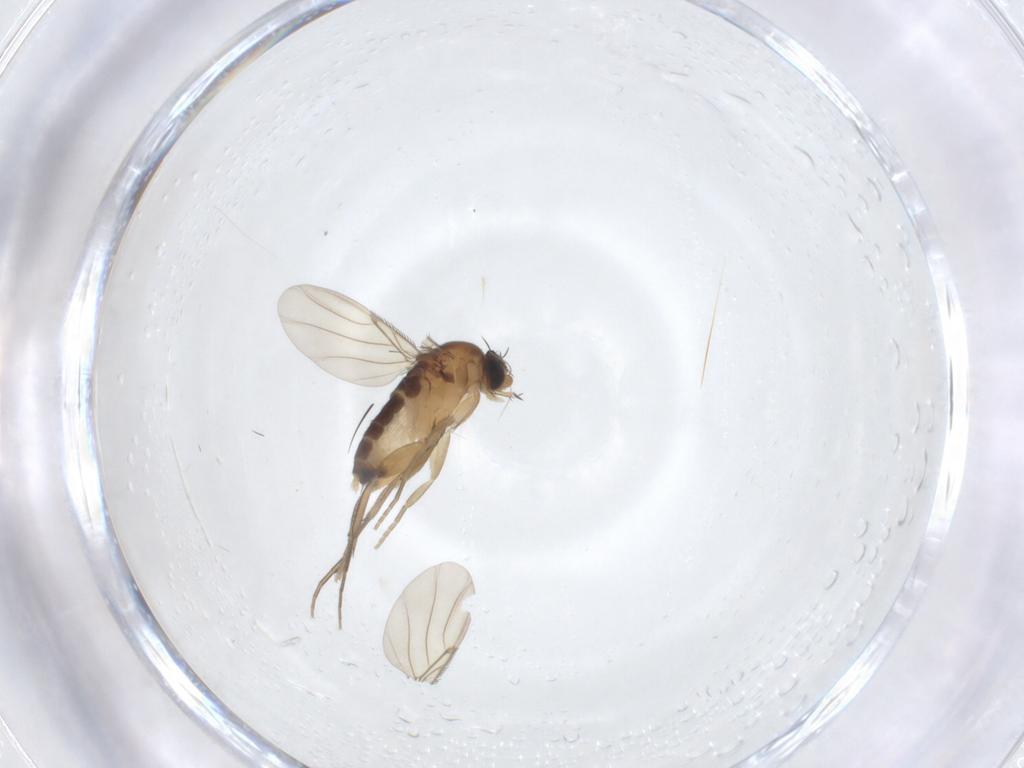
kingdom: Animalia
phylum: Arthropoda
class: Insecta
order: Diptera
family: Phoridae
